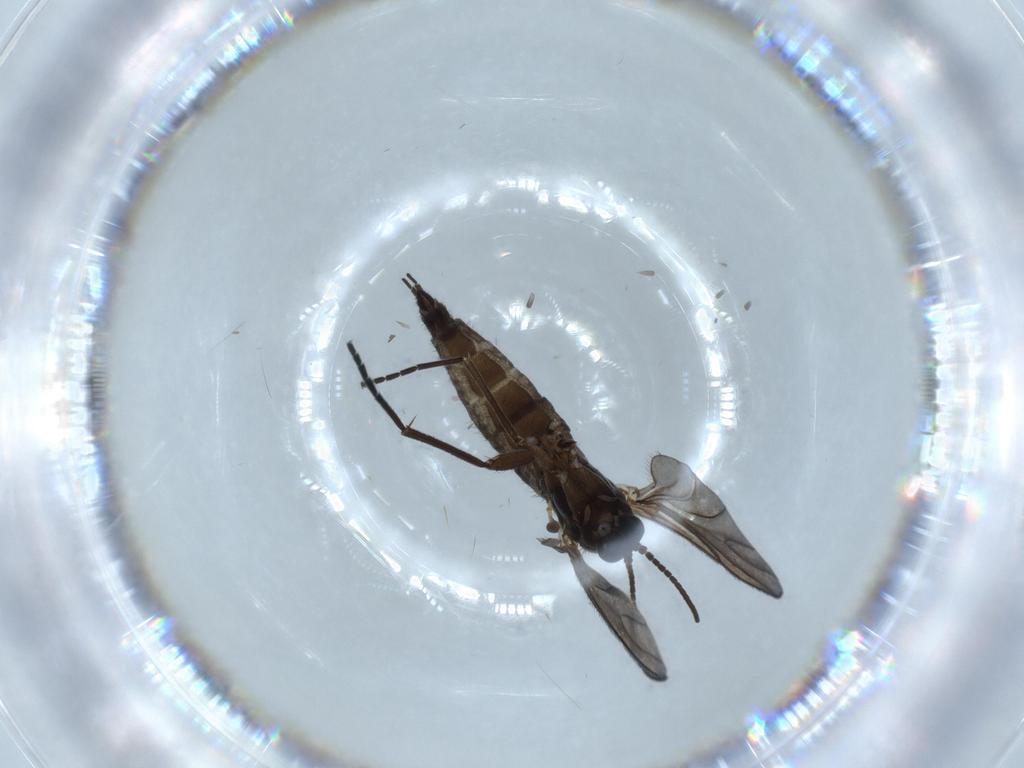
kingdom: Animalia
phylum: Arthropoda
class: Insecta
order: Diptera
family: Sciaridae
